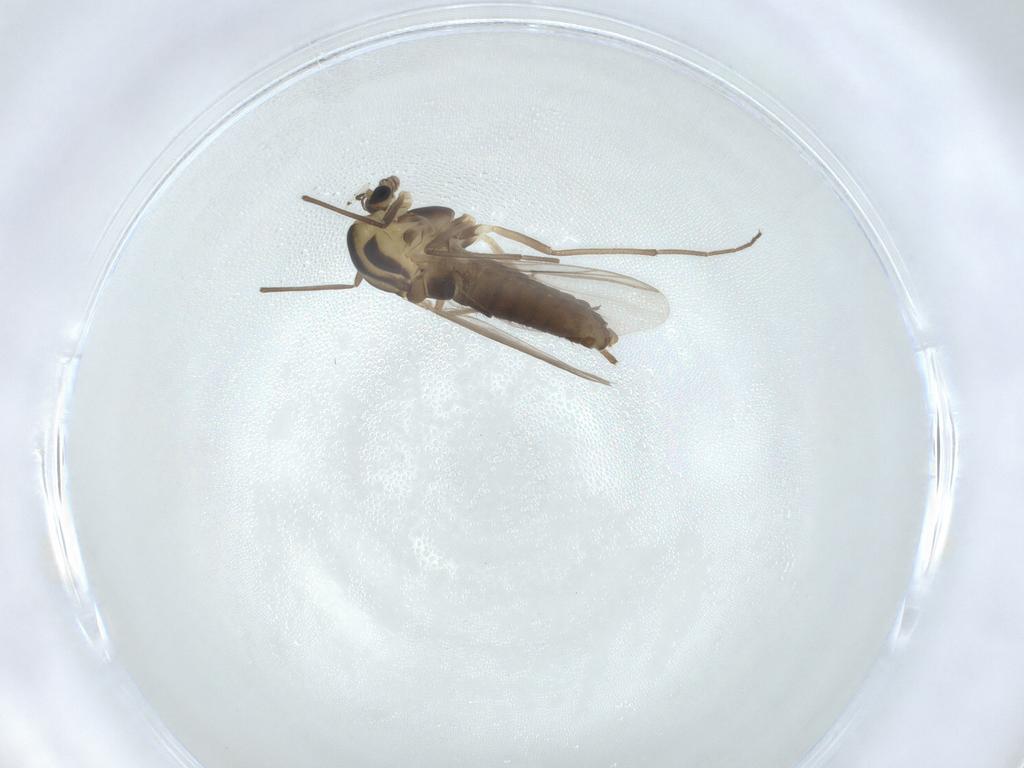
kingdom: Animalia
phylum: Arthropoda
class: Insecta
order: Diptera
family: Chironomidae
